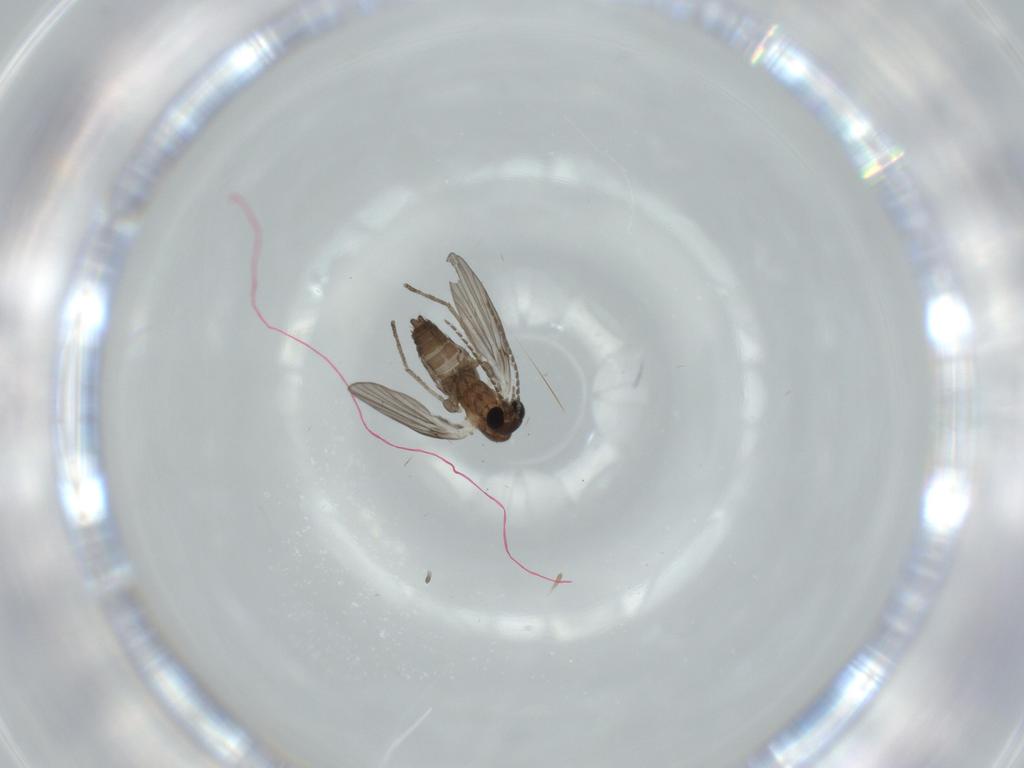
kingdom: Animalia
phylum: Arthropoda
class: Insecta
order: Diptera
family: Psychodidae
